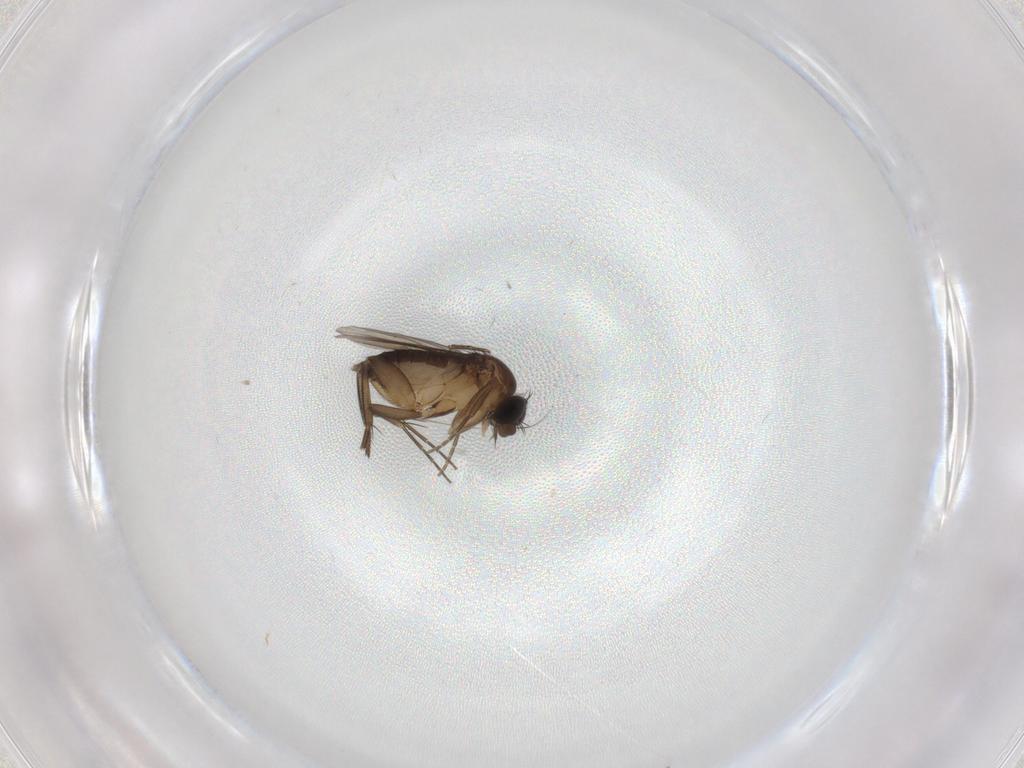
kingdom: Animalia
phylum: Arthropoda
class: Insecta
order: Diptera
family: Phoridae
